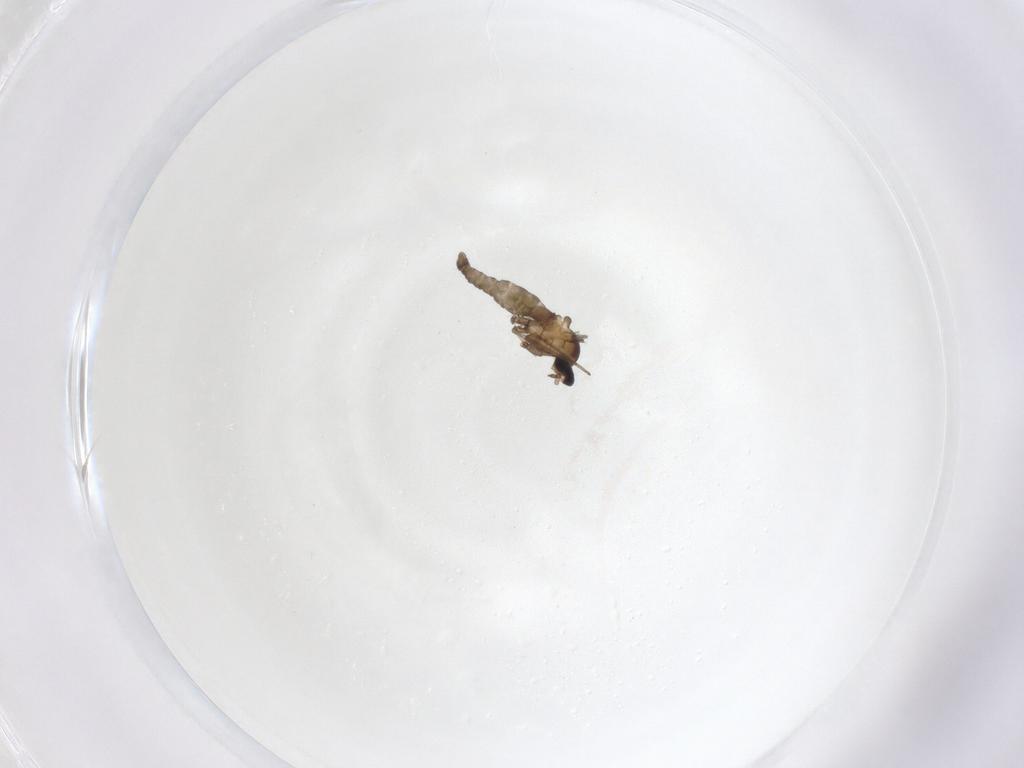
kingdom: Animalia
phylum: Arthropoda
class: Insecta
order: Diptera
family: Cecidomyiidae
